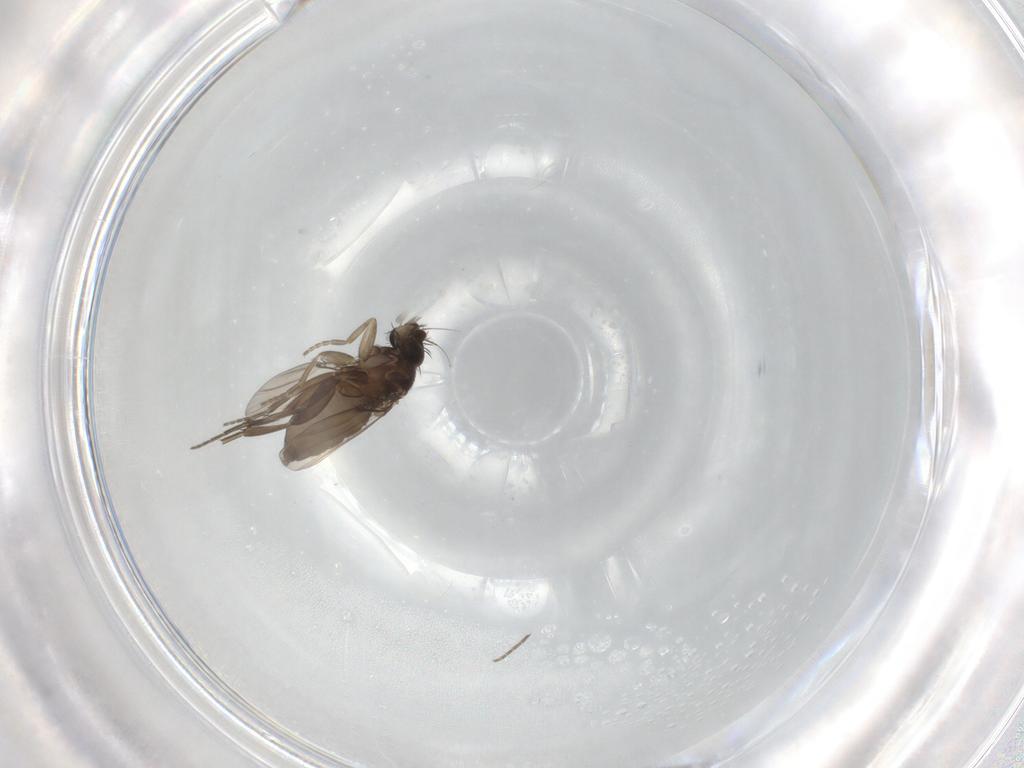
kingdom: Animalia
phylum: Arthropoda
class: Insecta
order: Diptera
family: Phoridae
